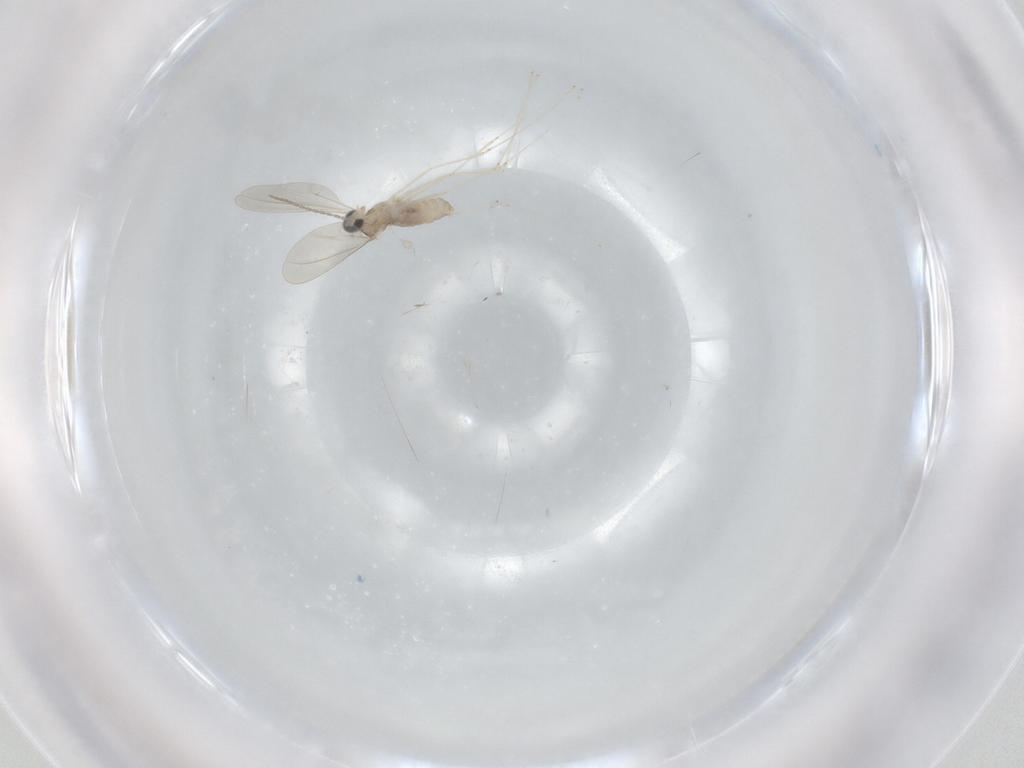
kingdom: Animalia
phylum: Arthropoda
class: Insecta
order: Diptera
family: Cecidomyiidae
